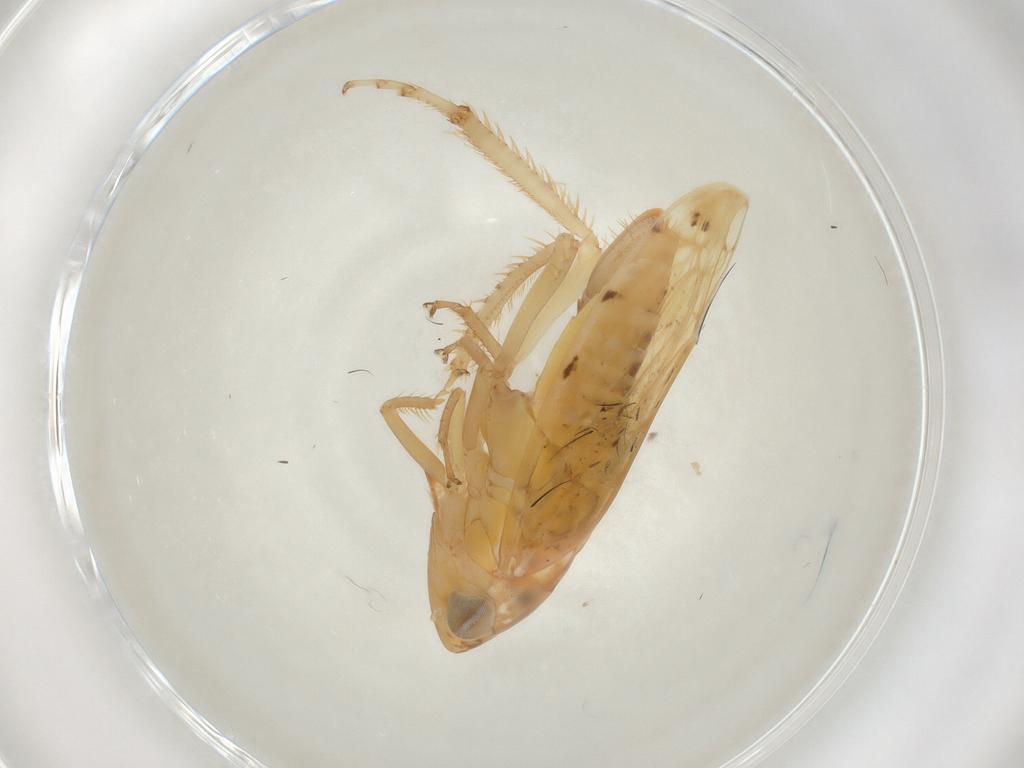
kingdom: Animalia
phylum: Arthropoda
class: Insecta
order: Hemiptera
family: Cicadellidae
